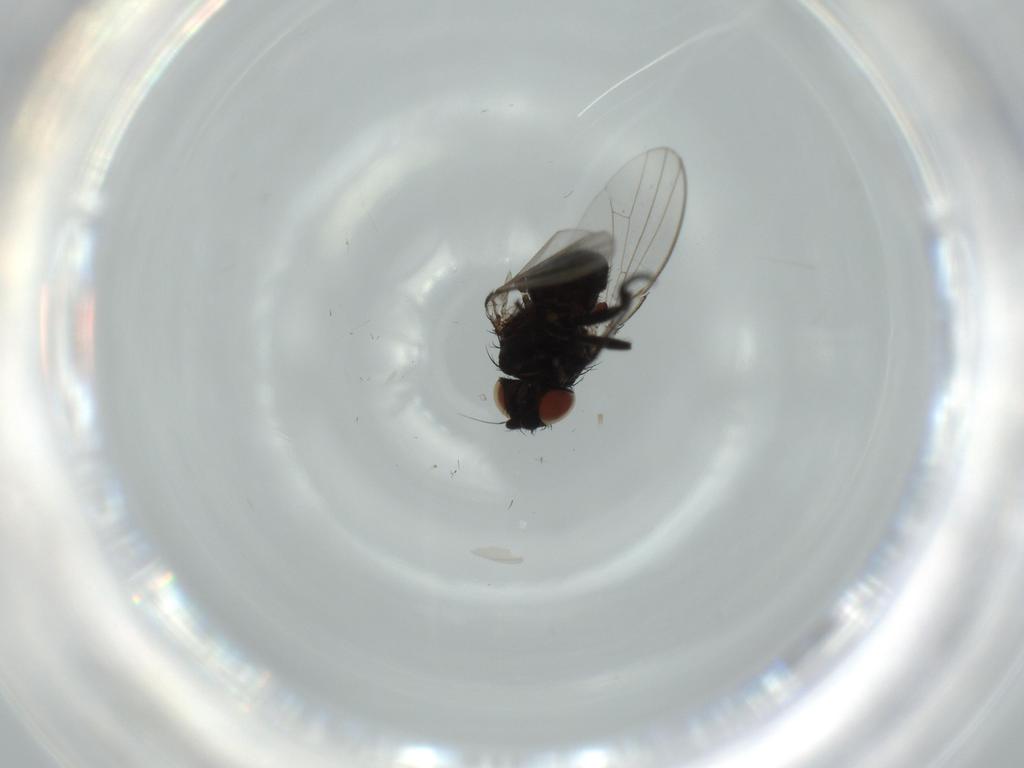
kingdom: Animalia
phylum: Arthropoda
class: Insecta
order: Diptera
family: Milichiidae
